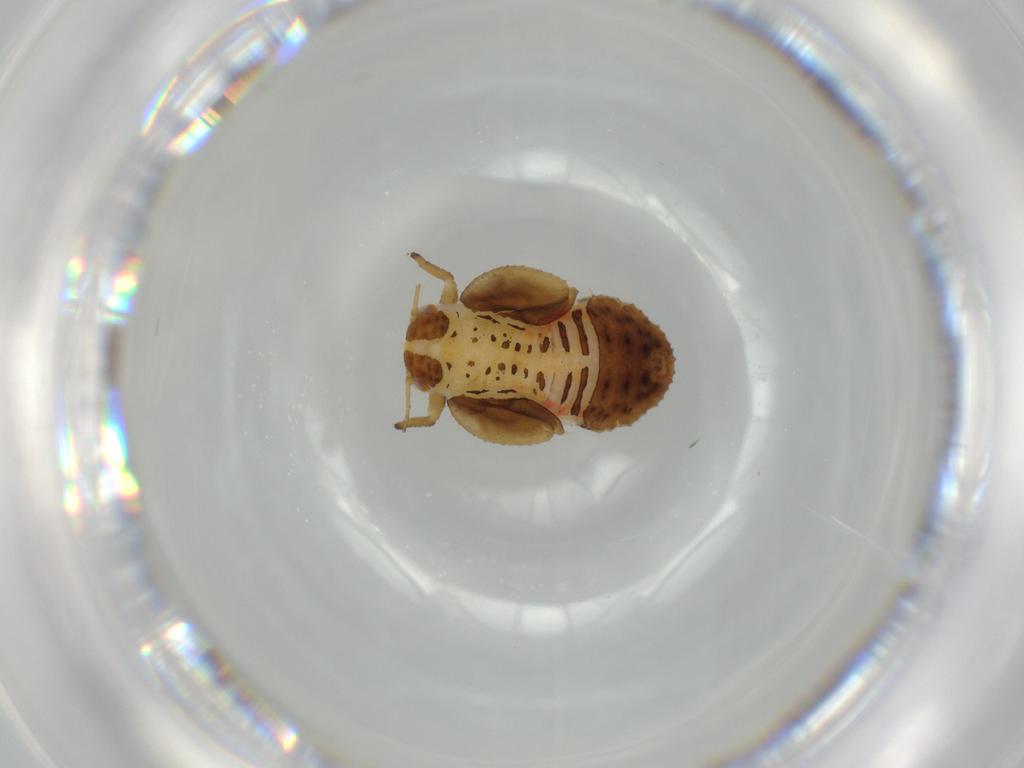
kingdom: Animalia
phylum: Arthropoda
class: Insecta
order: Hemiptera
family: Psyllidae
